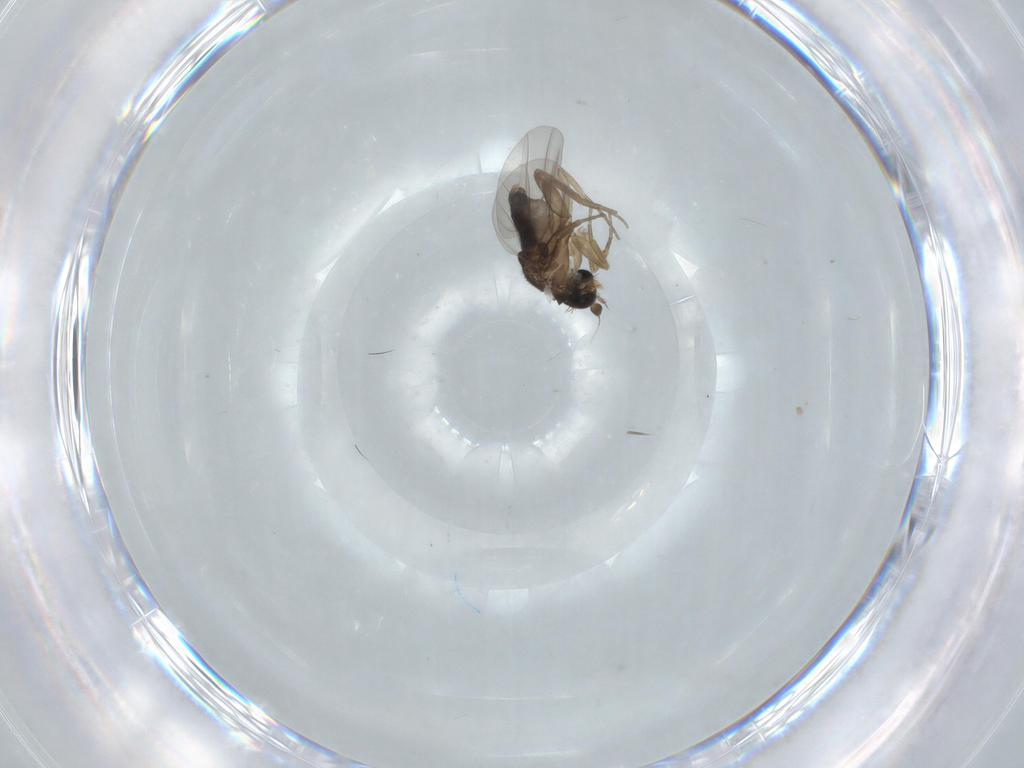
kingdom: Animalia
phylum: Arthropoda
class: Insecta
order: Diptera
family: Phoridae
